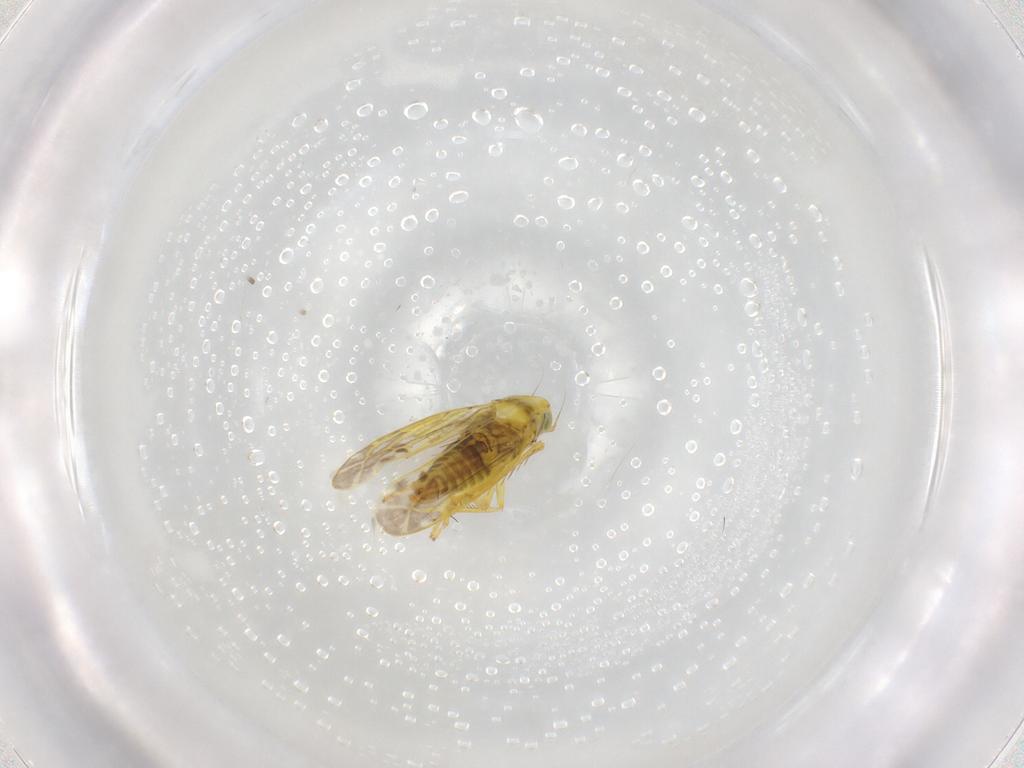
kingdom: Animalia
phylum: Arthropoda
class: Insecta
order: Hemiptera
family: Cicadellidae
